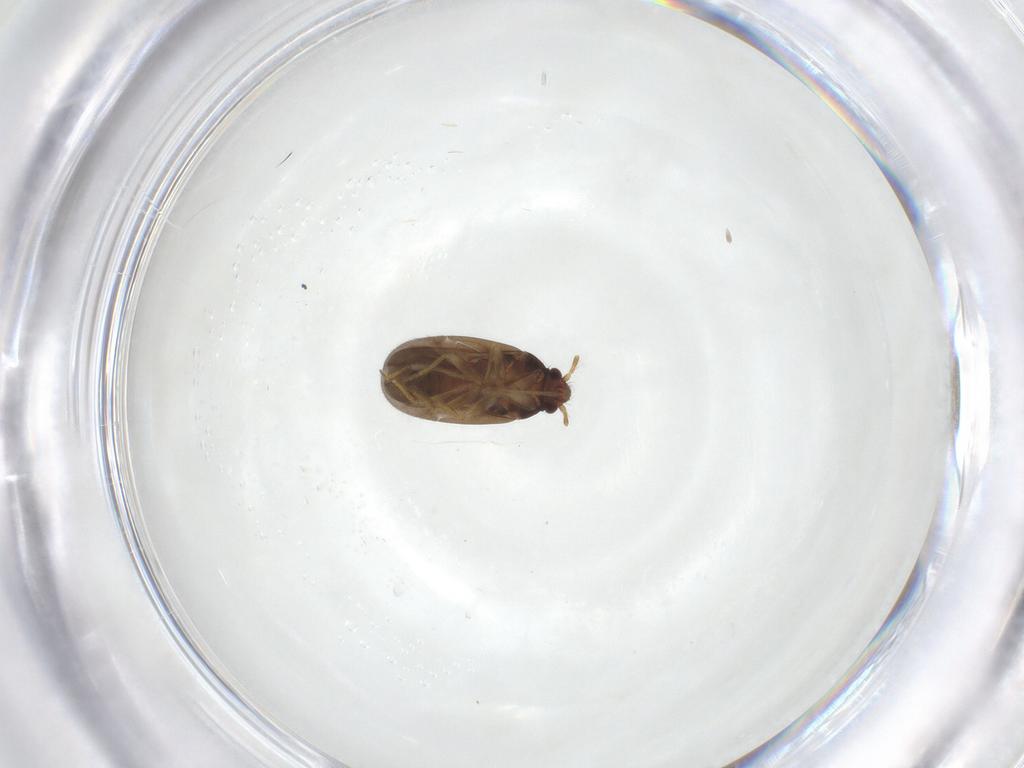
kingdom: Animalia
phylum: Arthropoda
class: Insecta
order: Hemiptera
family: Ceratocombidae
